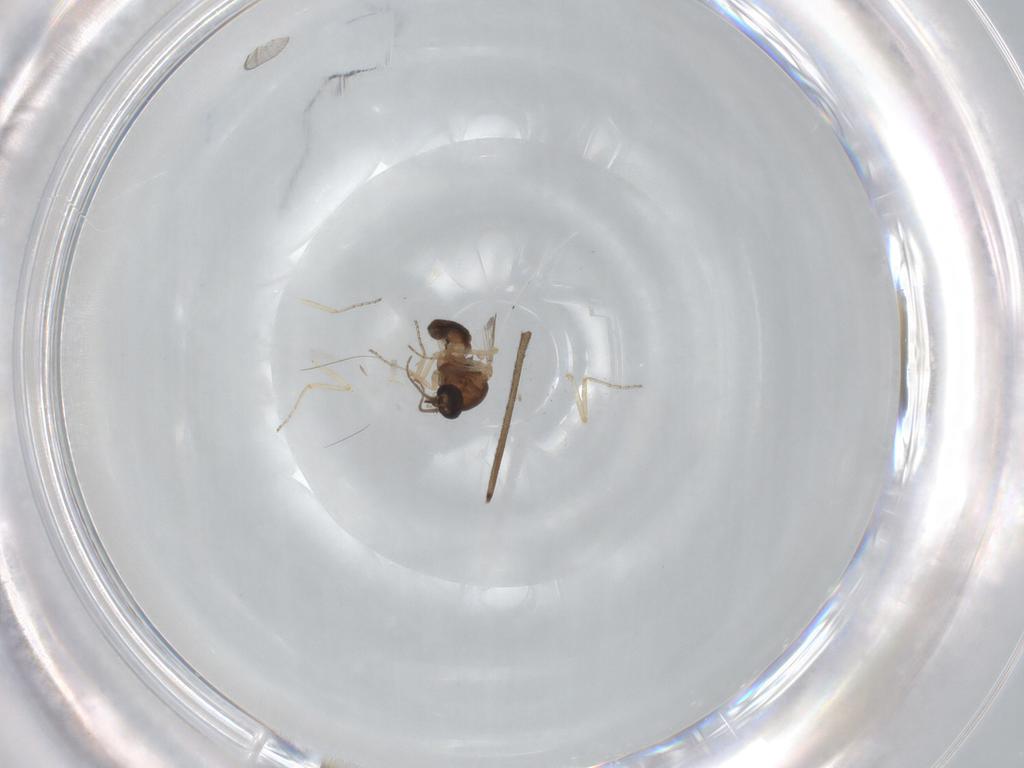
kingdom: Animalia
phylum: Arthropoda
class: Insecta
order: Diptera
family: Ceratopogonidae
